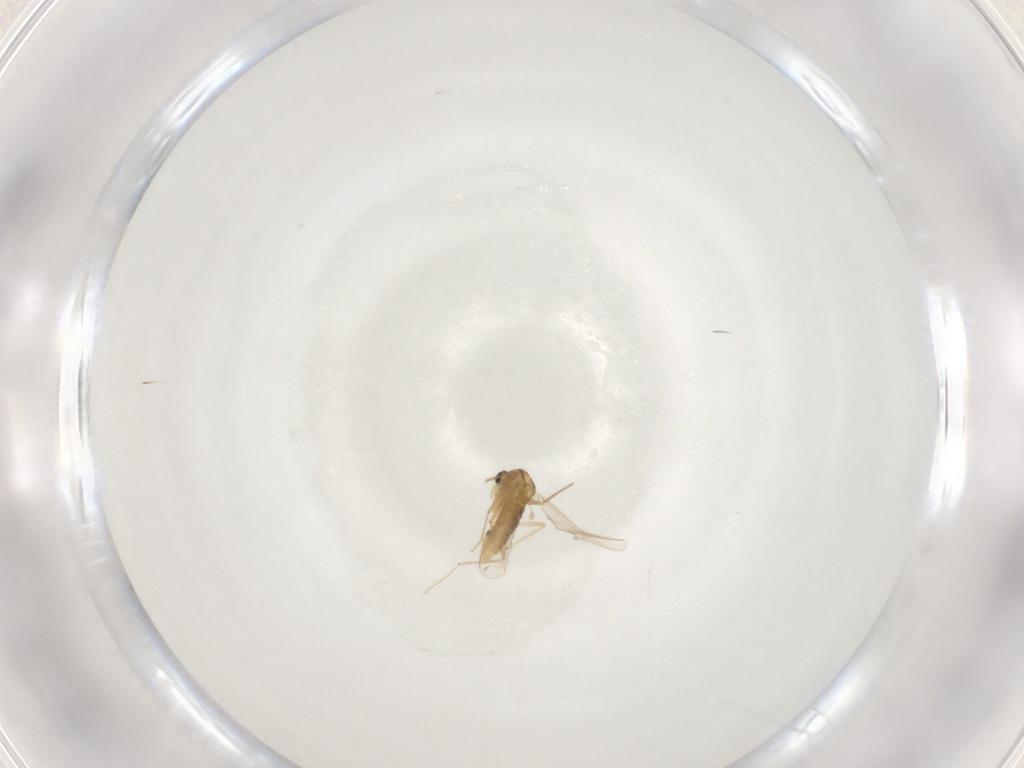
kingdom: Animalia
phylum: Arthropoda
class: Insecta
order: Diptera
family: Chironomidae
